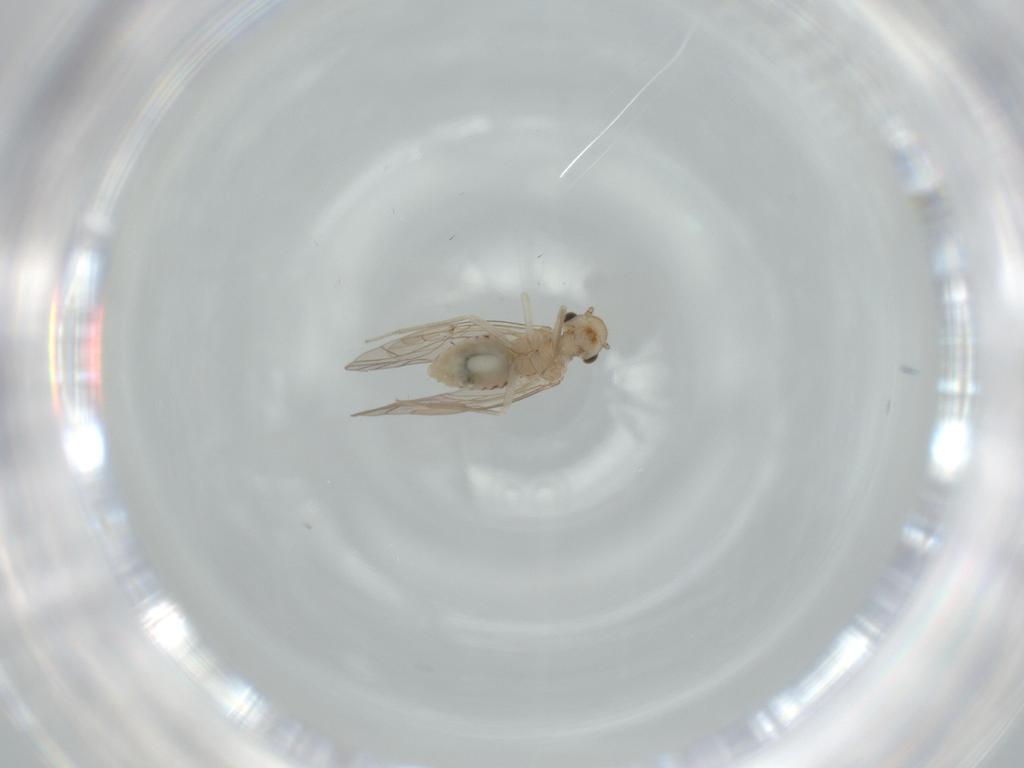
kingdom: Animalia
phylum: Arthropoda
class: Insecta
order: Psocodea
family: Lachesillidae
